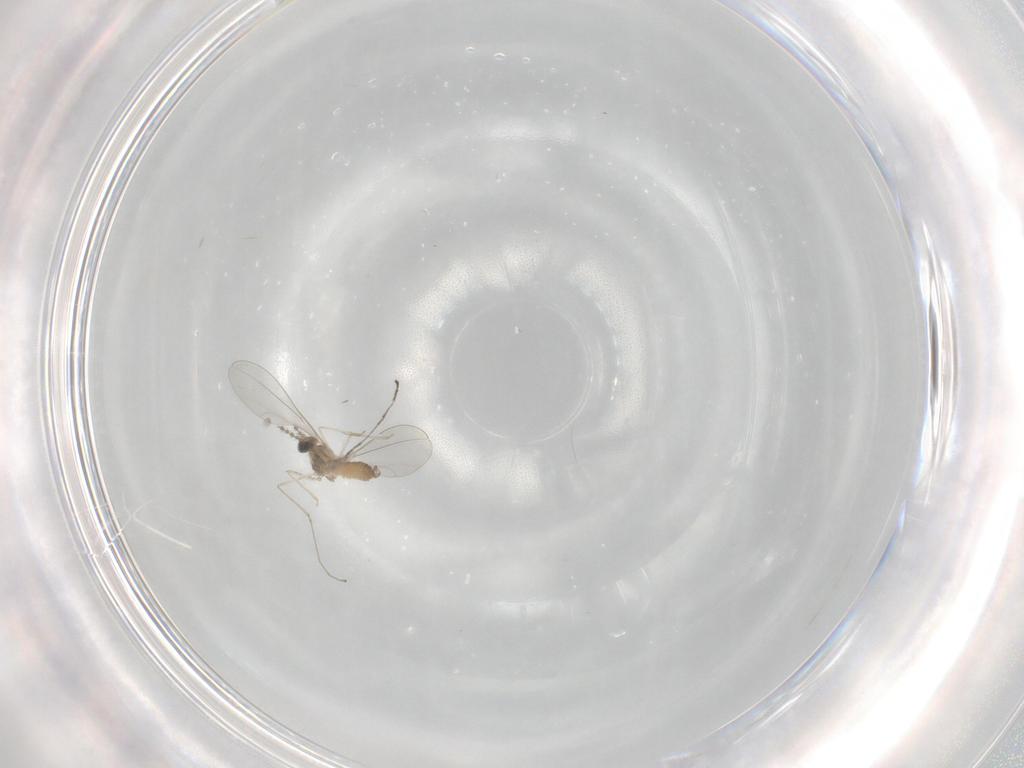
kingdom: Animalia
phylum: Arthropoda
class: Insecta
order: Diptera
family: Cecidomyiidae
